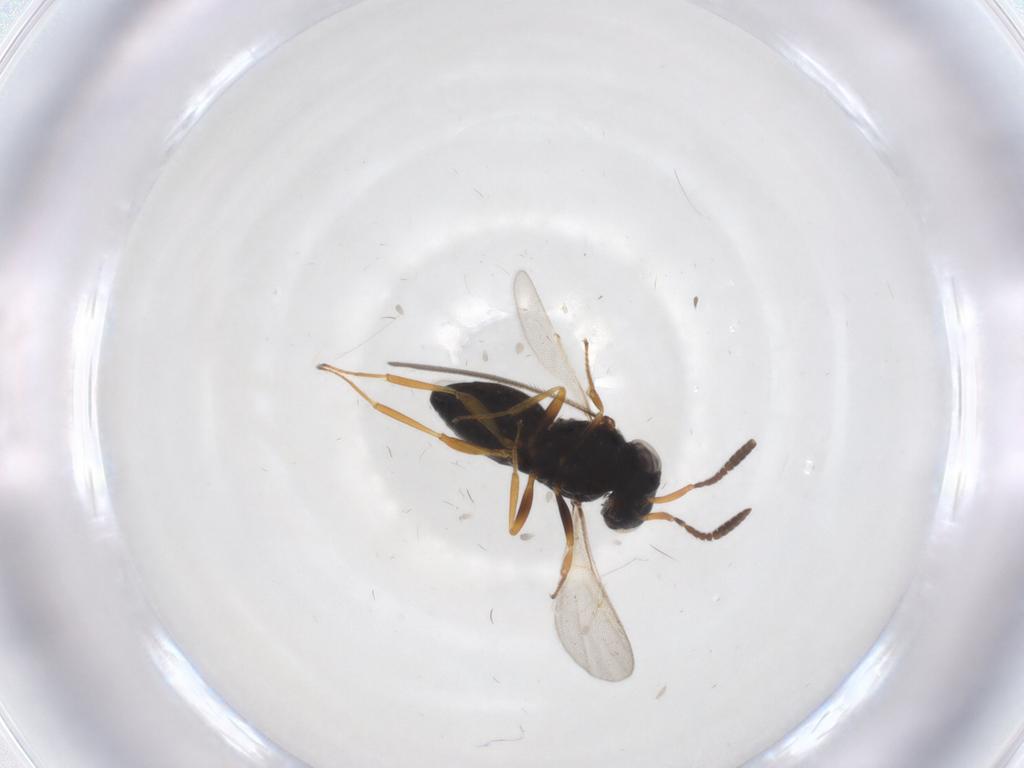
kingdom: Animalia
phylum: Arthropoda
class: Insecta
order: Hymenoptera
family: Scelionidae
